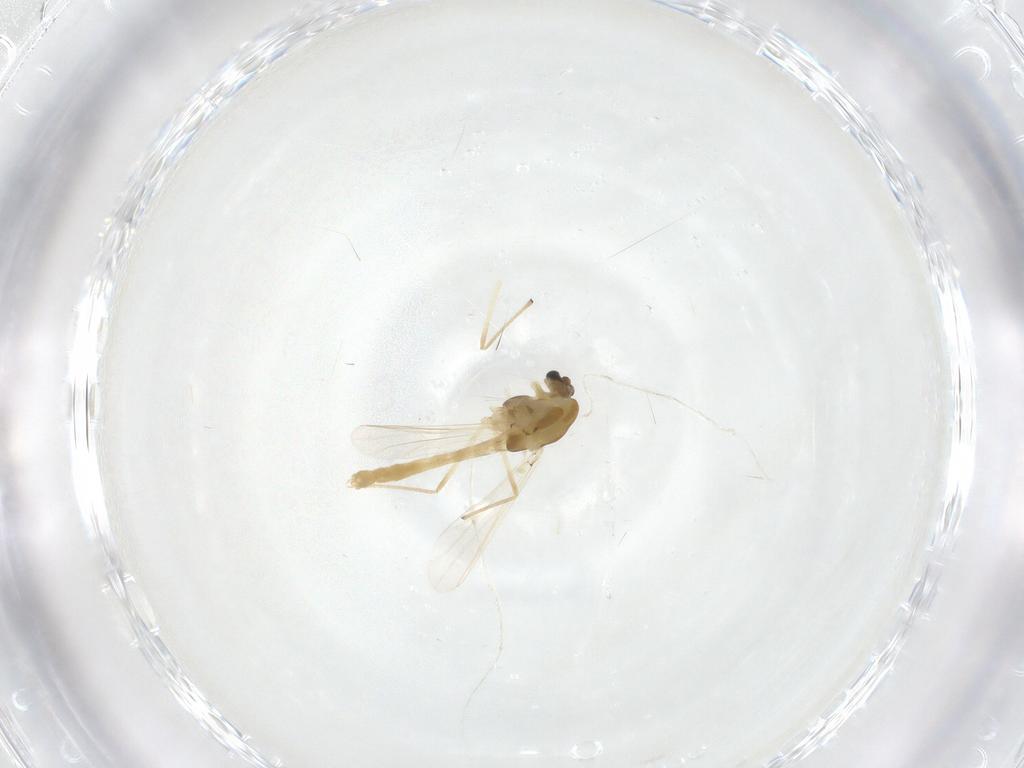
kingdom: Animalia
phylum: Arthropoda
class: Insecta
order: Diptera
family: Chironomidae
